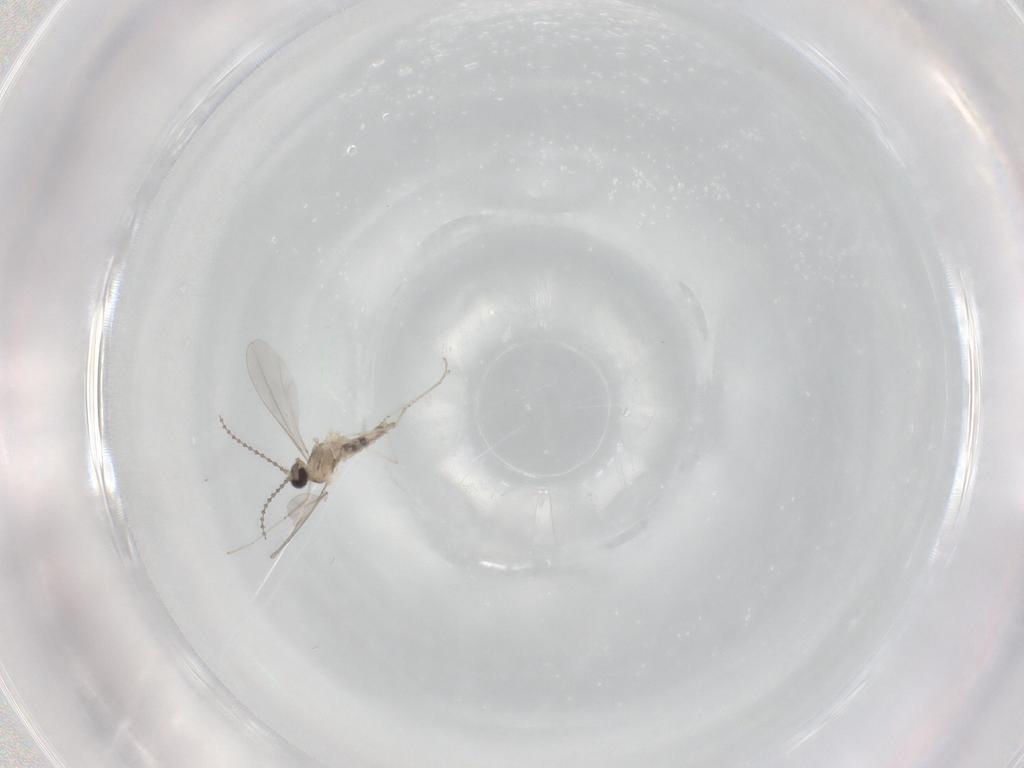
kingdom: Animalia
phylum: Arthropoda
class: Insecta
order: Diptera
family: Cecidomyiidae
